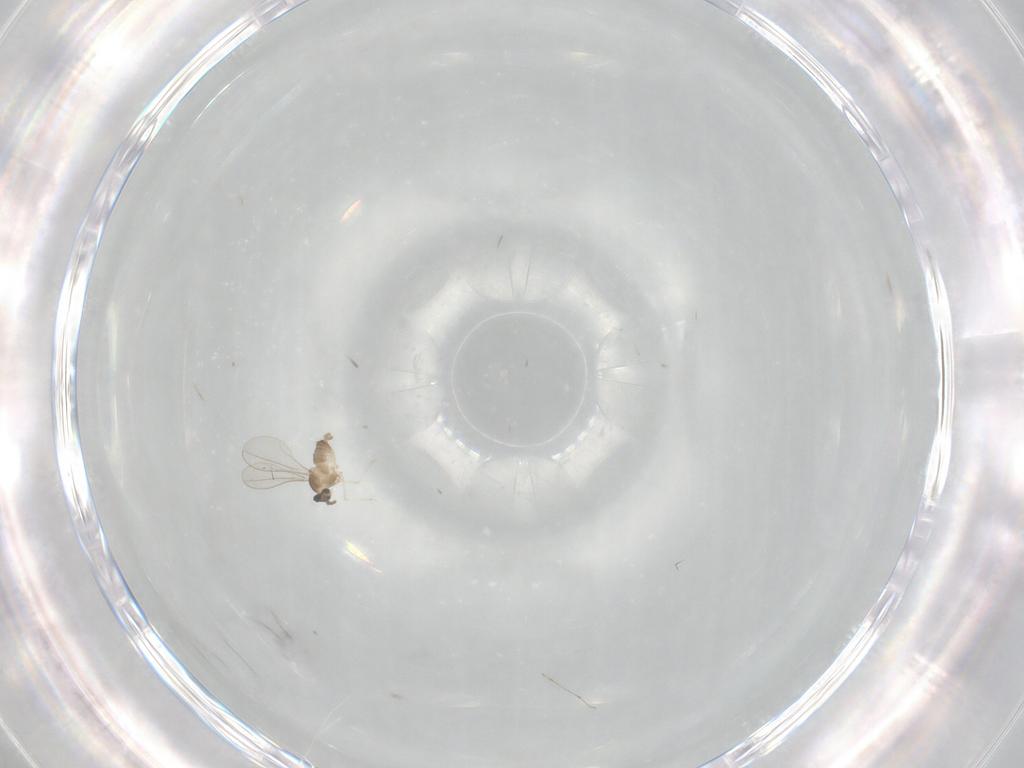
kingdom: Animalia
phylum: Arthropoda
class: Insecta
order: Diptera
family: Cecidomyiidae
